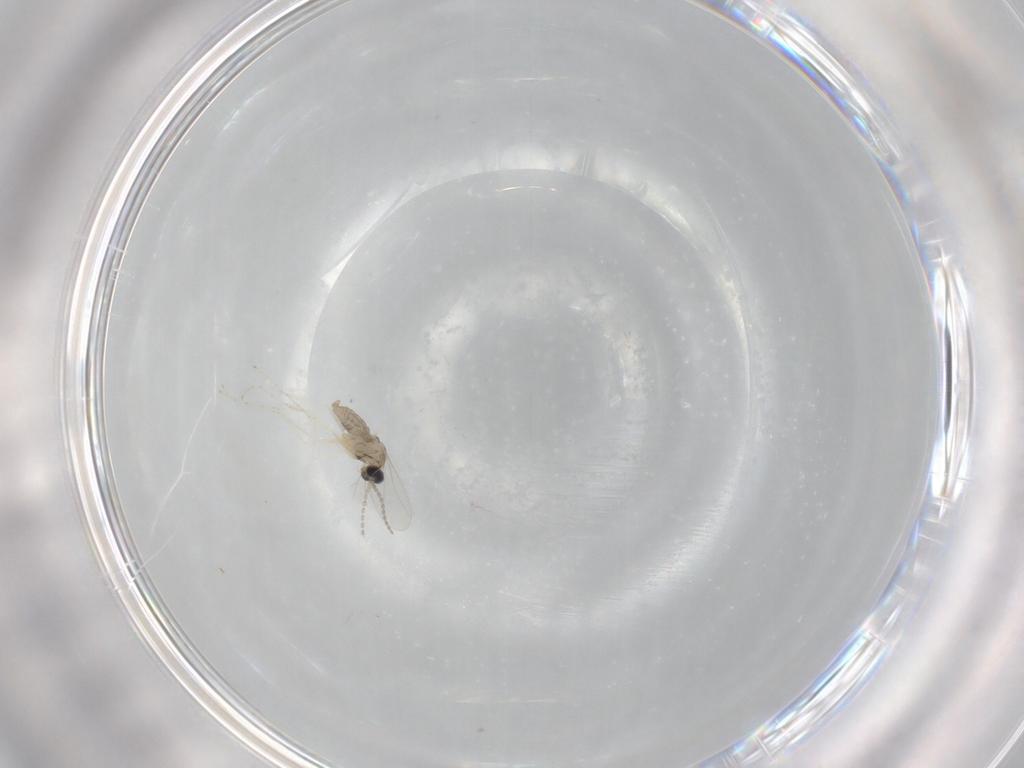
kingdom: Animalia
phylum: Arthropoda
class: Insecta
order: Diptera
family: Cecidomyiidae
